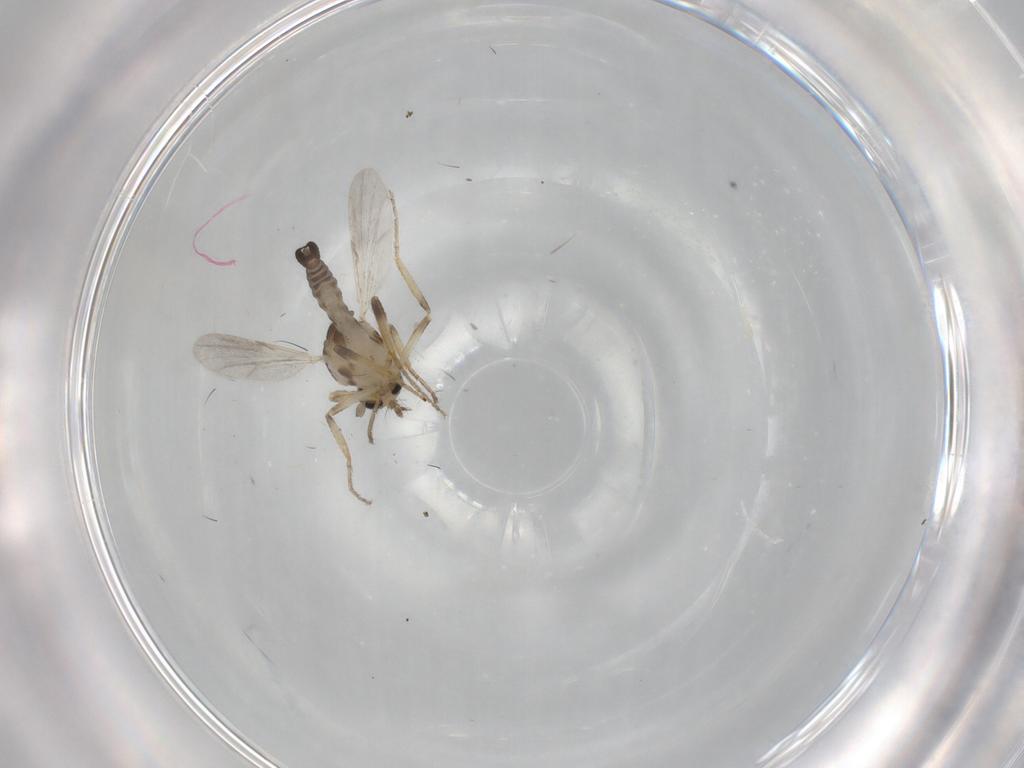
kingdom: Animalia
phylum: Arthropoda
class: Insecta
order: Diptera
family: Ceratopogonidae
